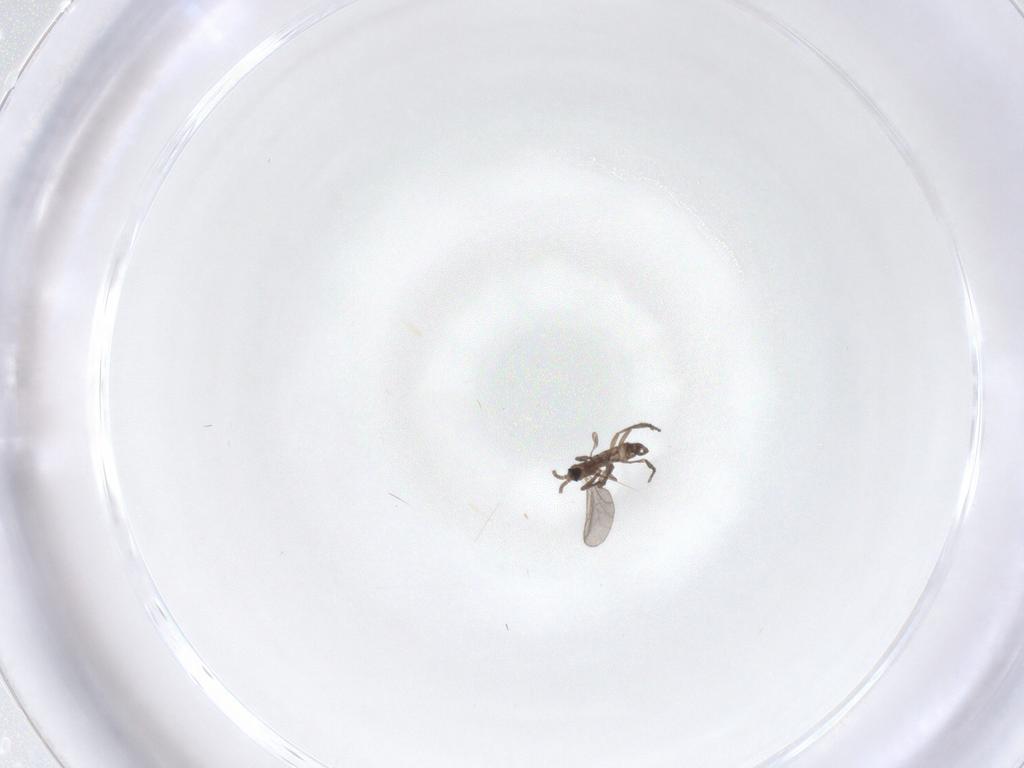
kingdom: Animalia
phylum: Arthropoda
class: Insecta
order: Diptera
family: Sciaridae
